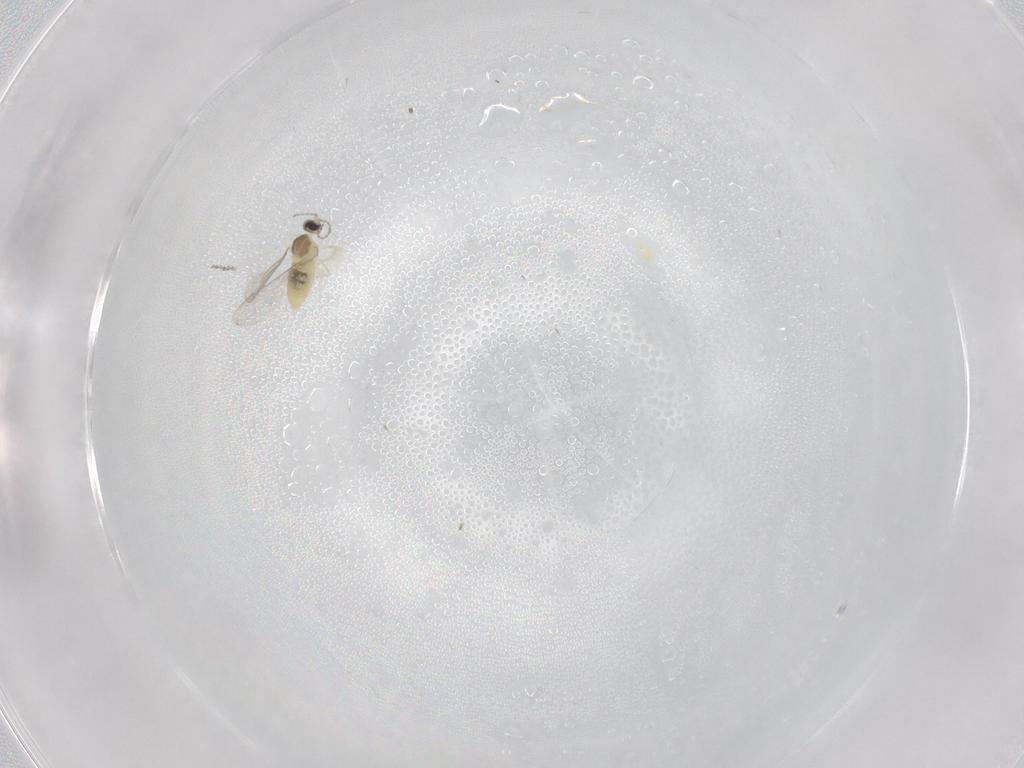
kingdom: Animalia
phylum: Arthropoda
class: Insecta
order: Diptera
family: Cecidomyiidae
